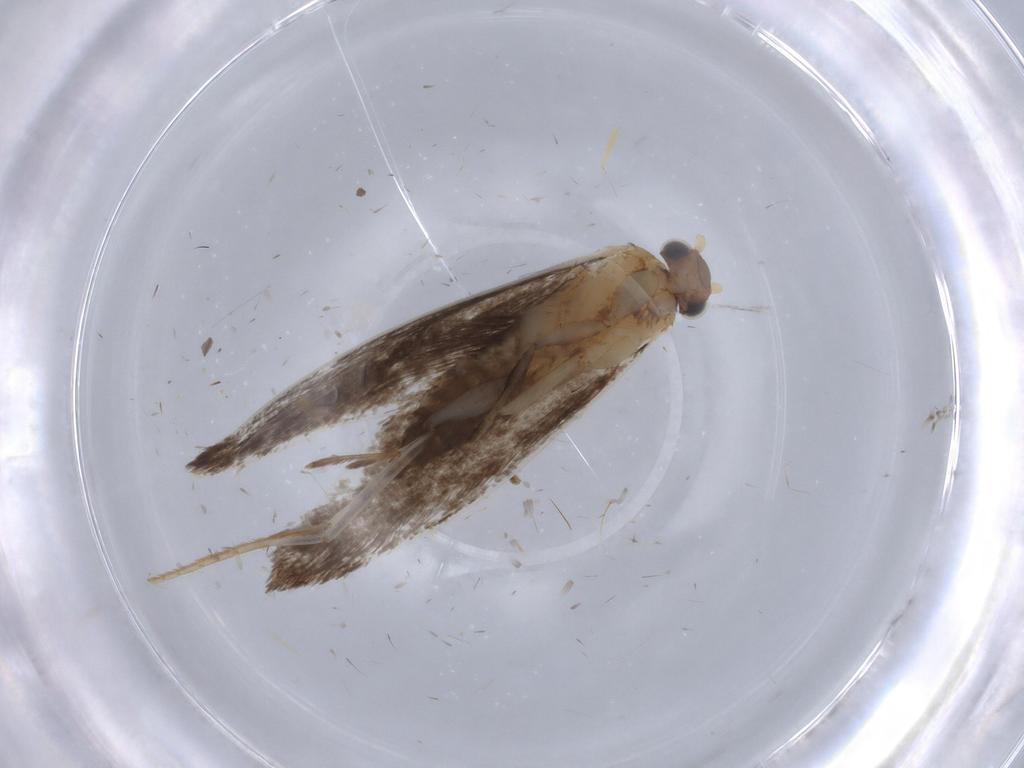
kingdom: Animalia
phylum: Arthropoda
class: Insecta
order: Lepidoptera
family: Tineidae
